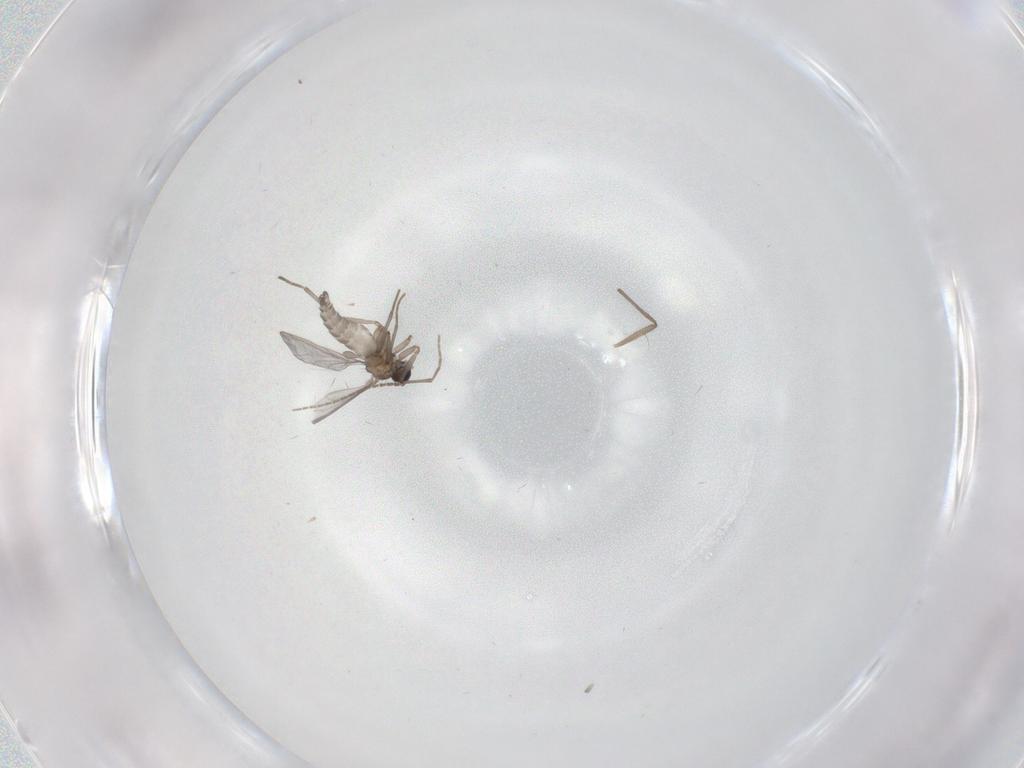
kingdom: Animalia
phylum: Arthropoda
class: Insecta
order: Diptera
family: Sciaridae
